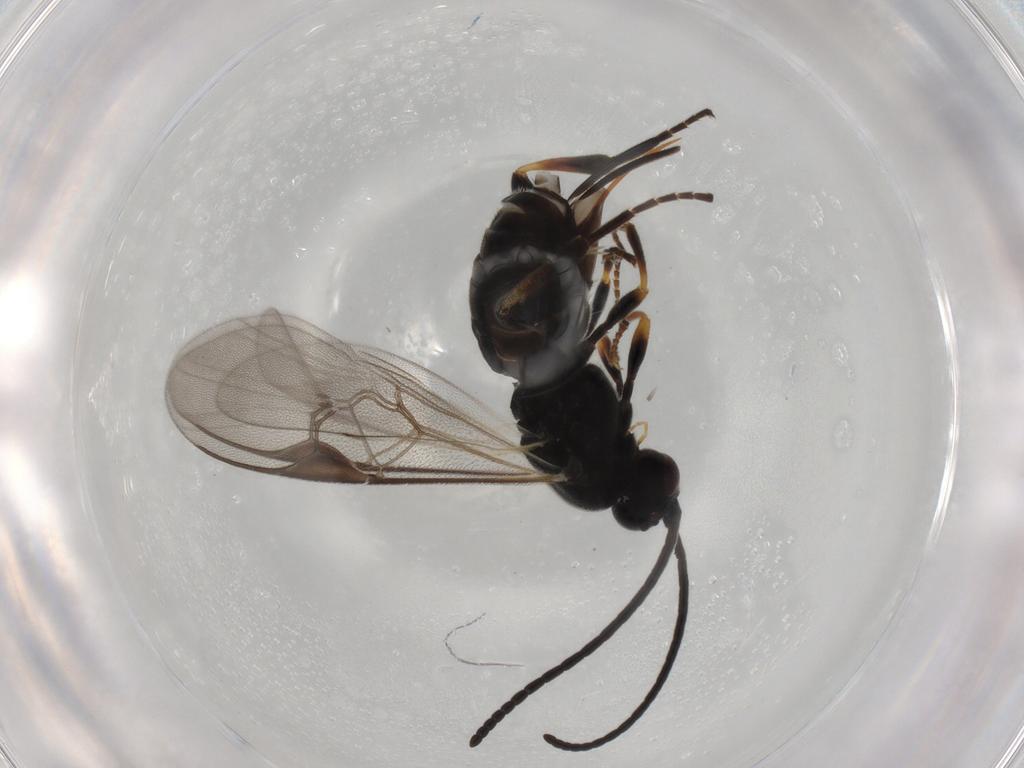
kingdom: Animalia
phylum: Arthropoda
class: Insecta
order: Hymenoptera
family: Braconidae
